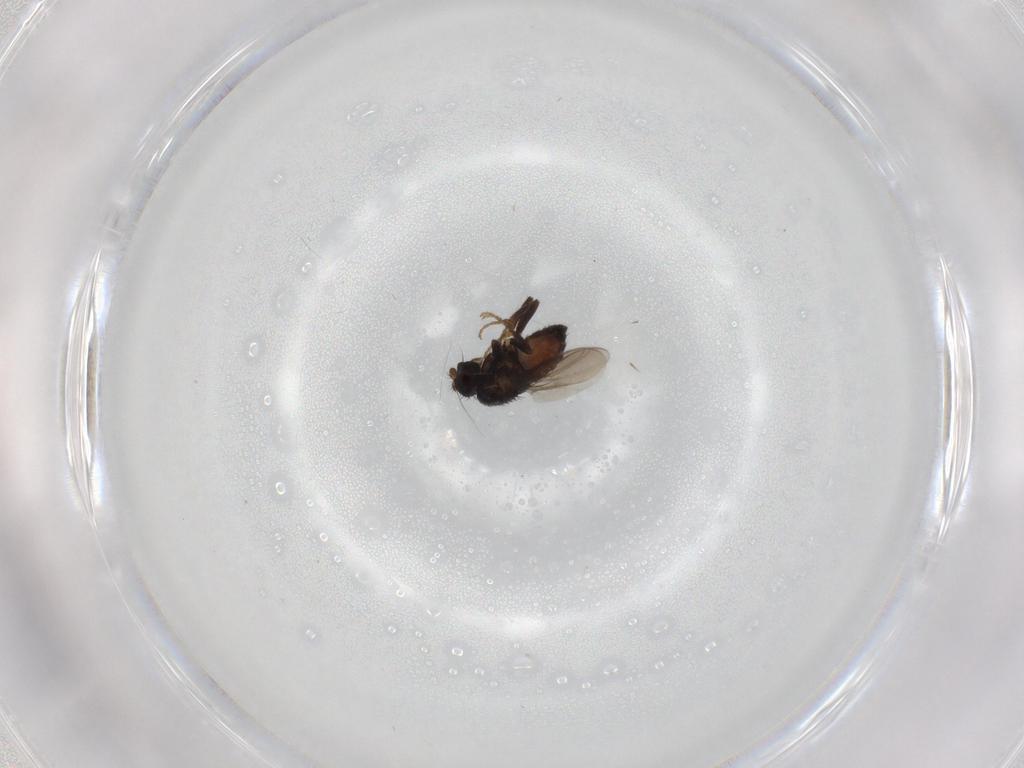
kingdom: Animalia
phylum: Arthropoda
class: Insecta
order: Diptera
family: Sphaeroceridae
